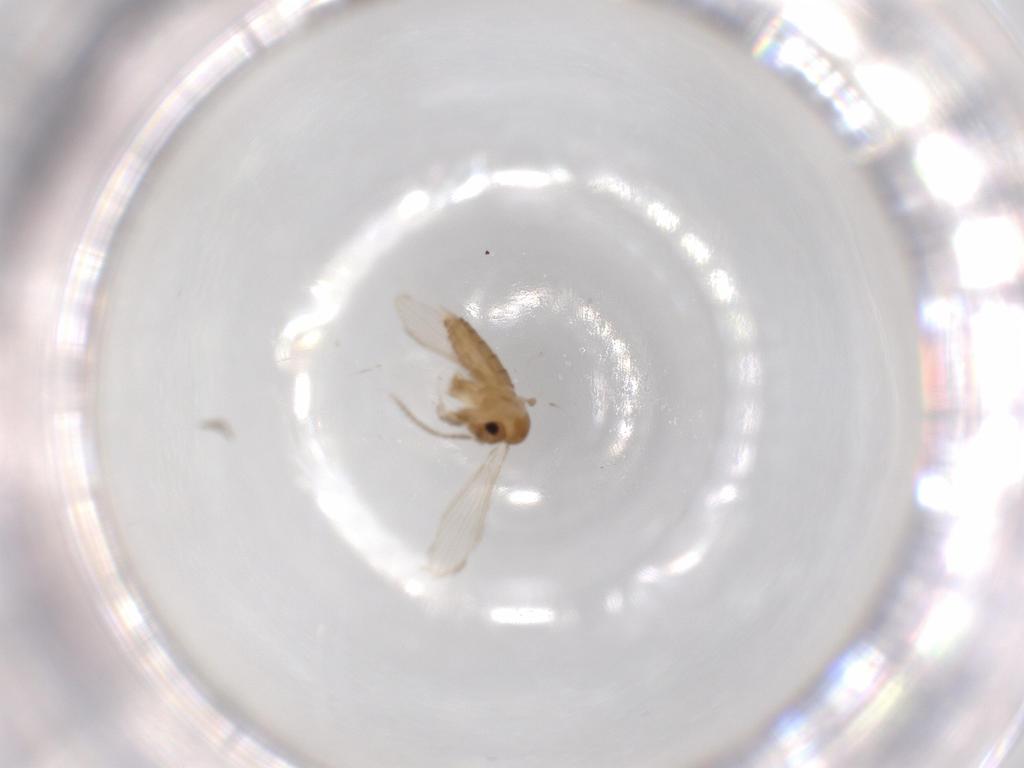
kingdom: Animalia
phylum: Arthropoda
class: Insecta
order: Diptera
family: Psychodidae
